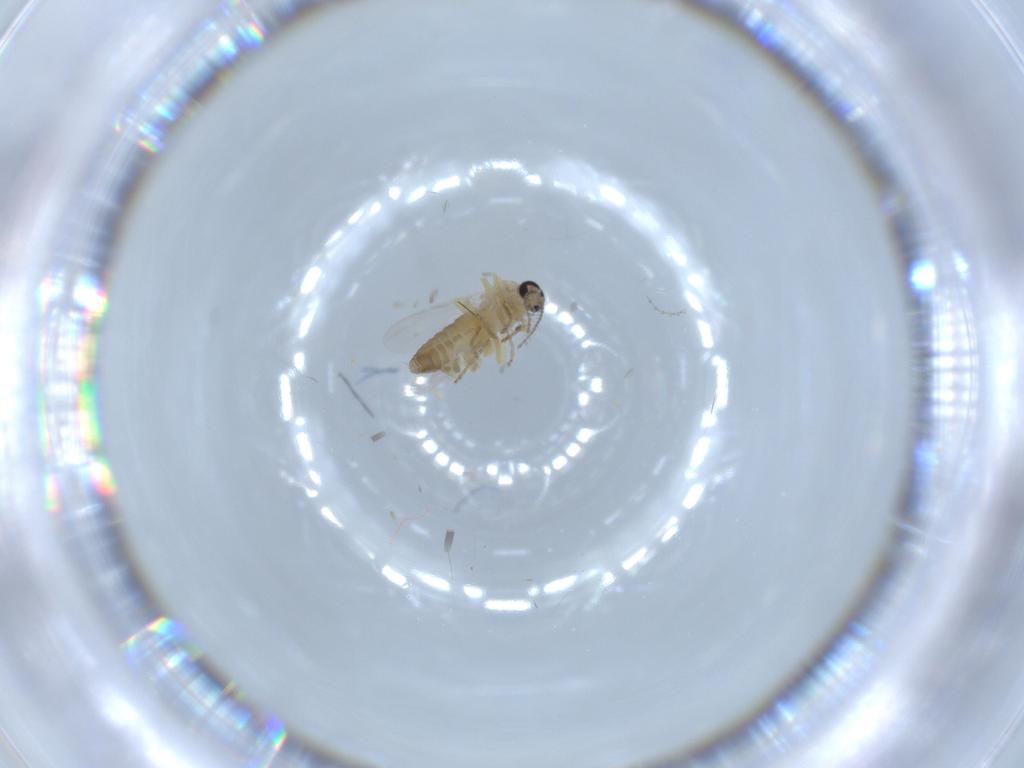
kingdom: Animalia
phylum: Arthropoda
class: Insecta
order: Diptera
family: Ceratopogonidae
